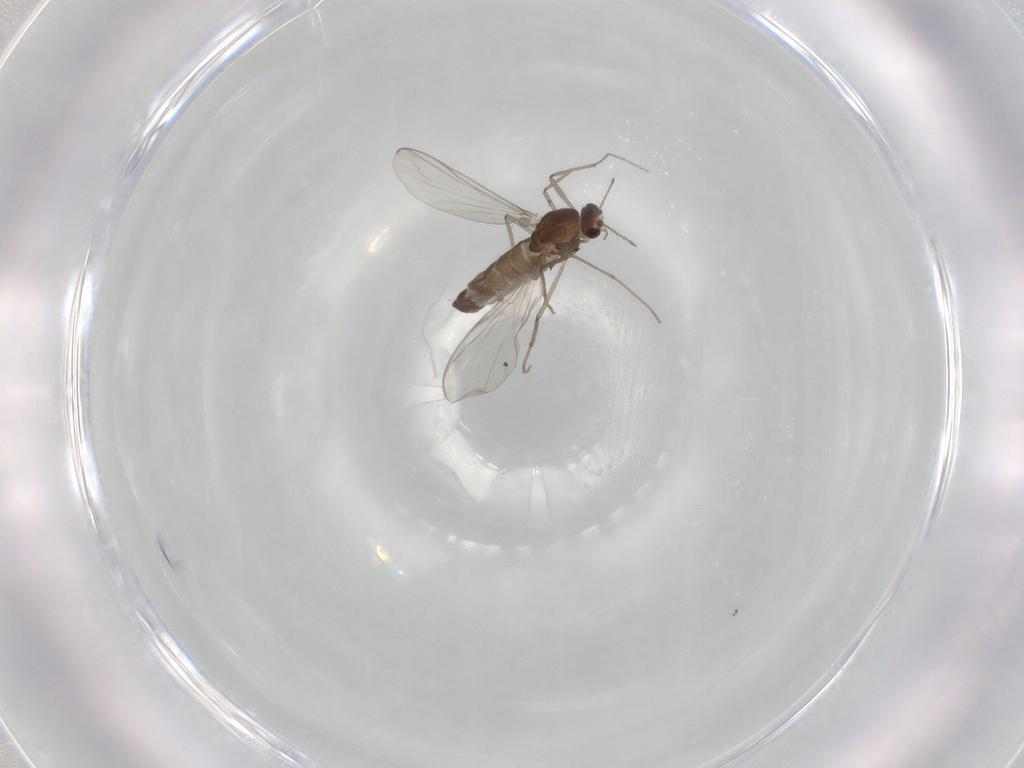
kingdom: Animalia
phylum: Arthropoda
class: Insecta
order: Diptera
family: Chironomidae
